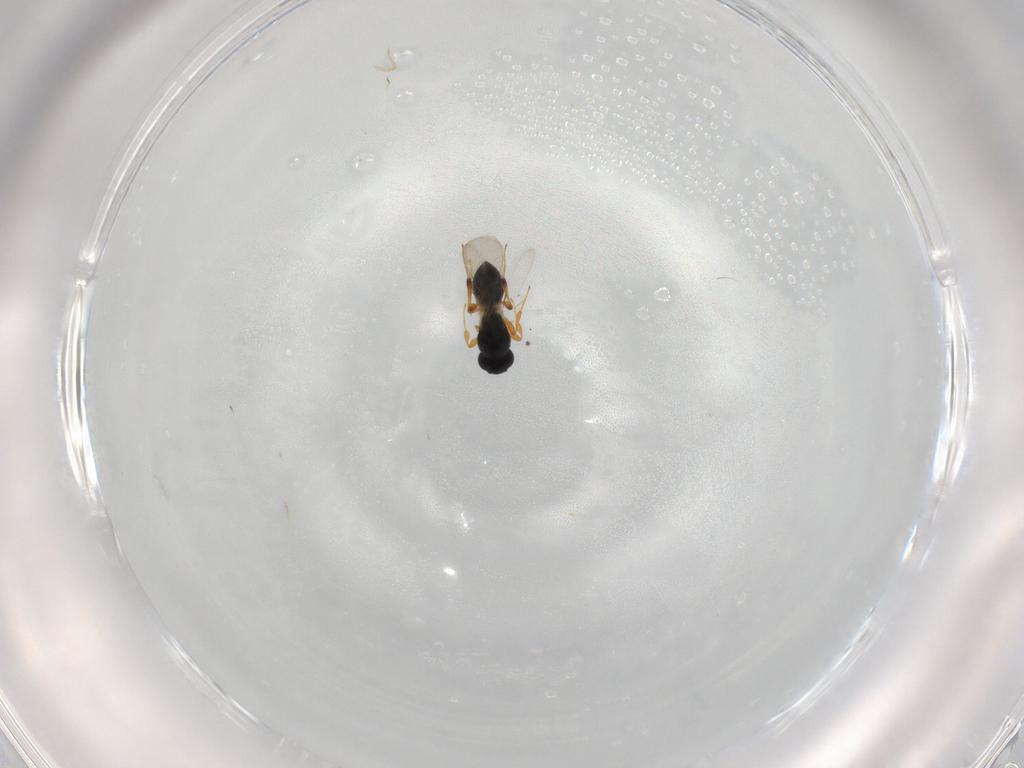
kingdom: Animalia
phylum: Arthropoda
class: Insecta
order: Hymenoptera
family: Platygastridae
